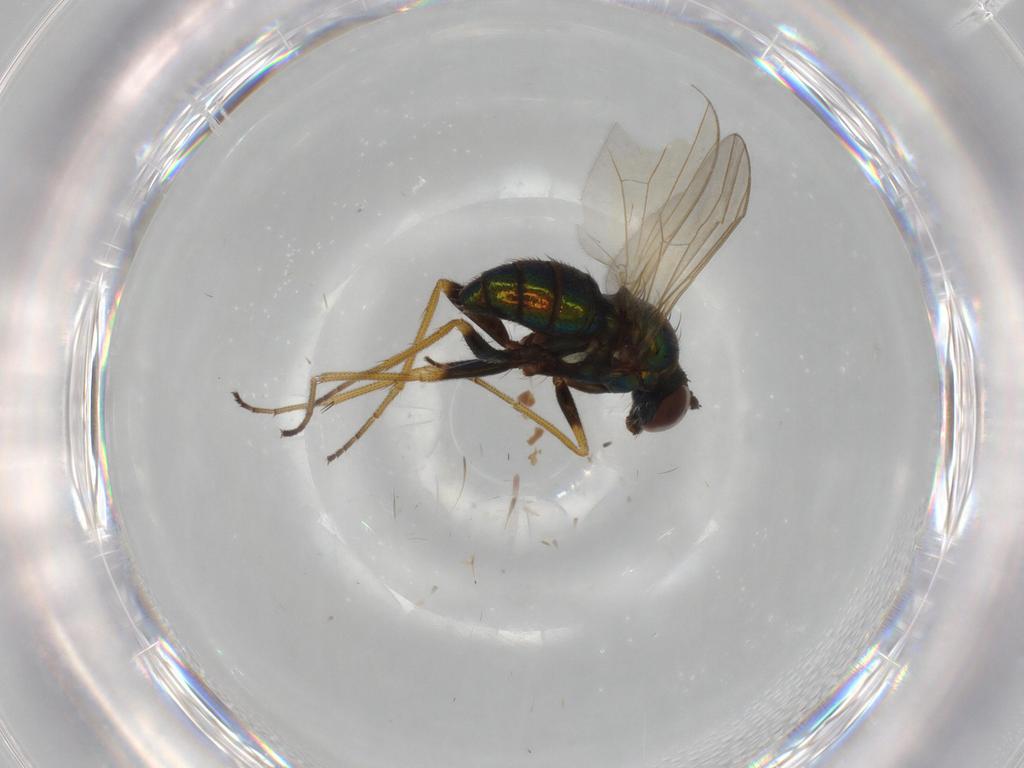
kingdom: Animalia
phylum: Arthropoda
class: Insecta
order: Diptera
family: Dolichopodidae
